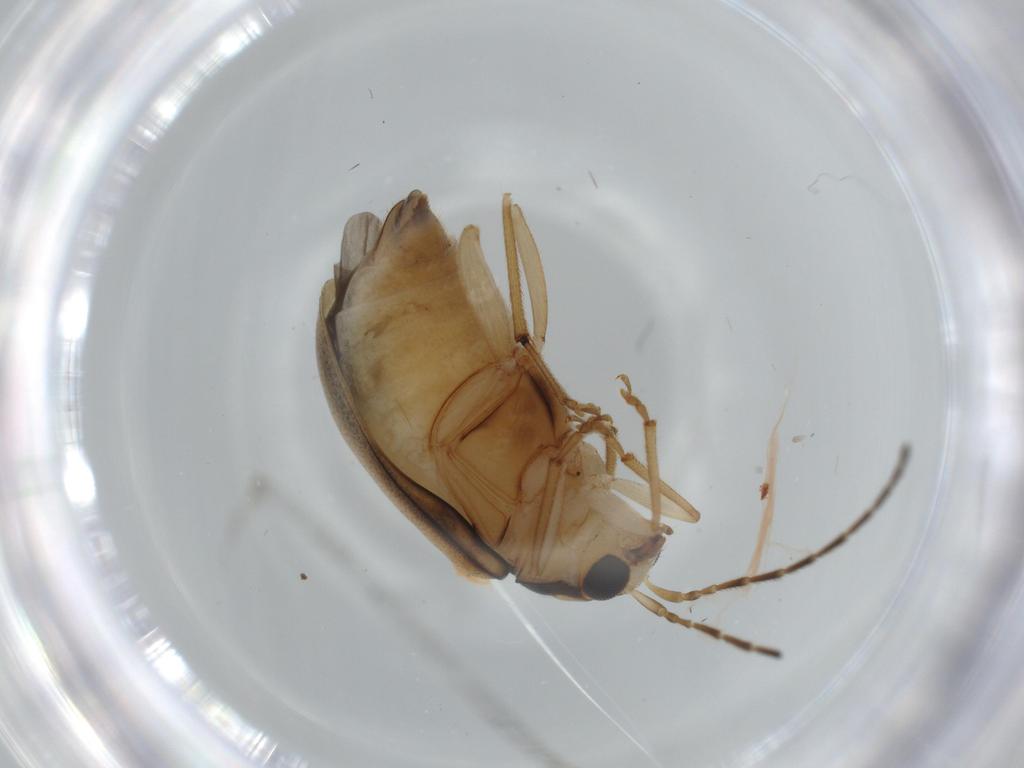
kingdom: Animalia
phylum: Arthropoda
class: Insecta
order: Coleoptera
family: Chrysomelidae
